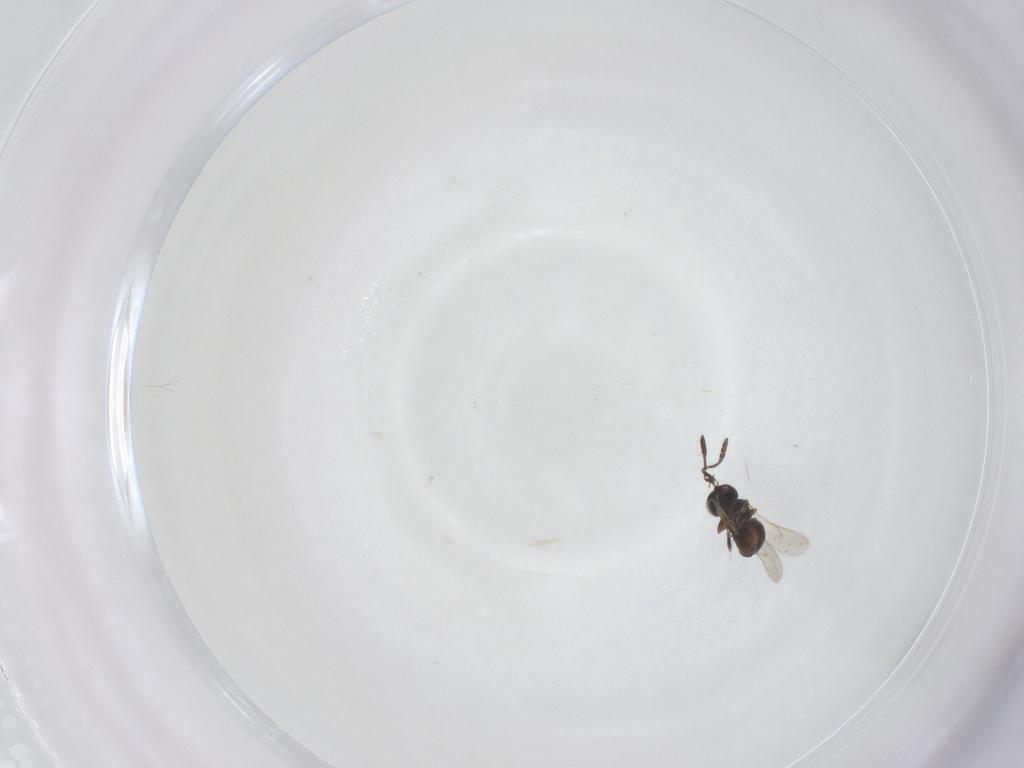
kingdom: Animalia
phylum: Arthropoda
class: Insecta
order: Hymenoptera
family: Scelionidae
